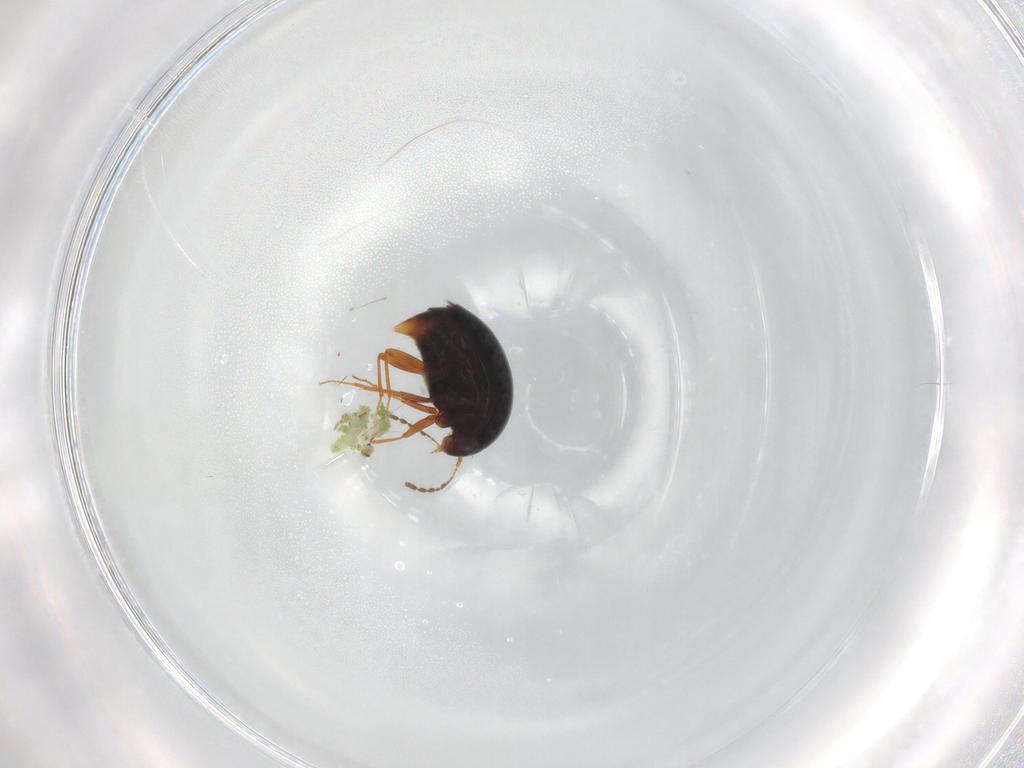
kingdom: Animalia
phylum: Arthropoda
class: Insecta
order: Coleoptera
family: Staphylinidae
